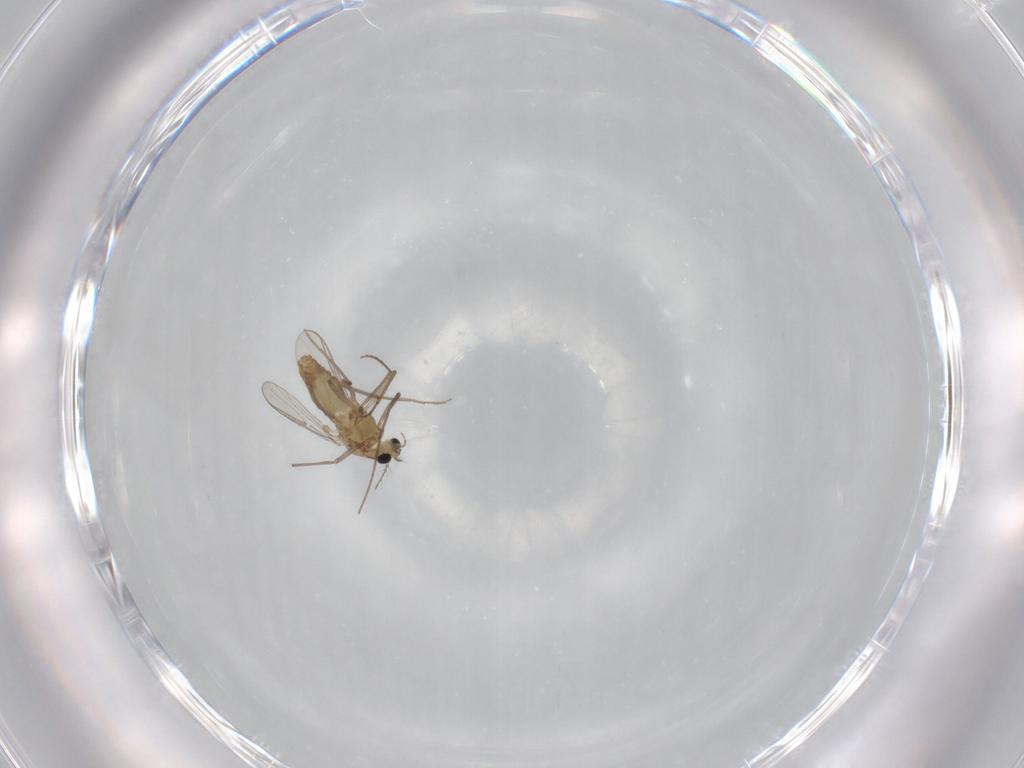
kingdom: Animalia
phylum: Arthropoda
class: Insecta
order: Diptera
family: Chironomidae
